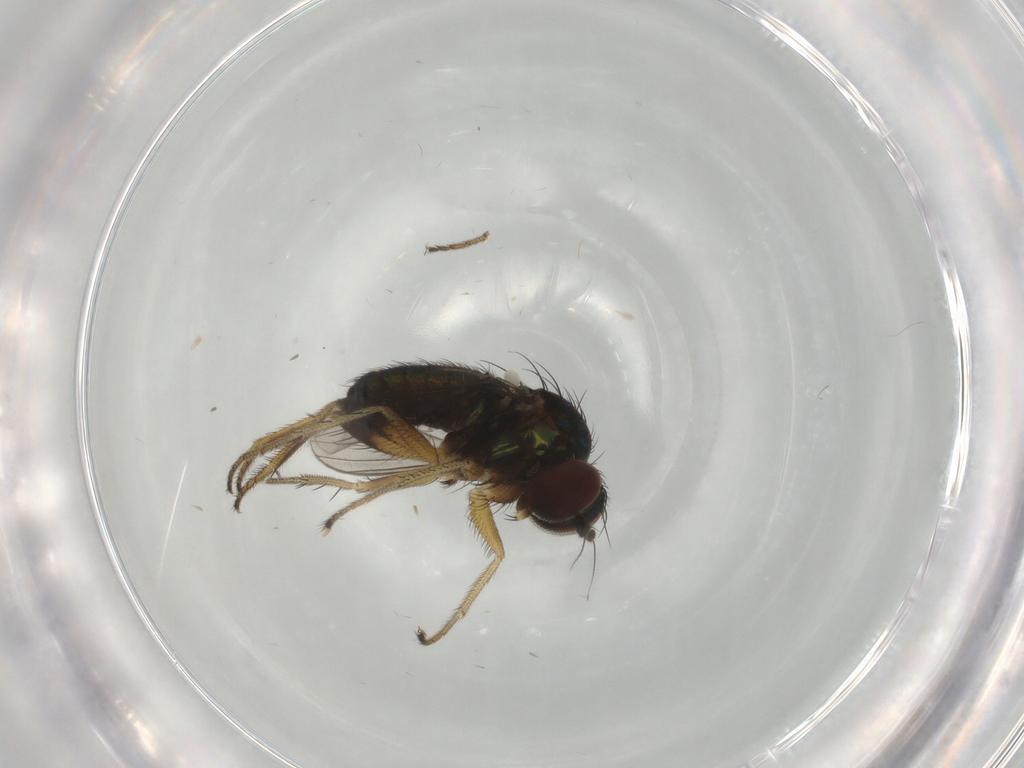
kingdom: Animalia
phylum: Arthropoda
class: Insecta
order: Diptera
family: Dolichopodidae
